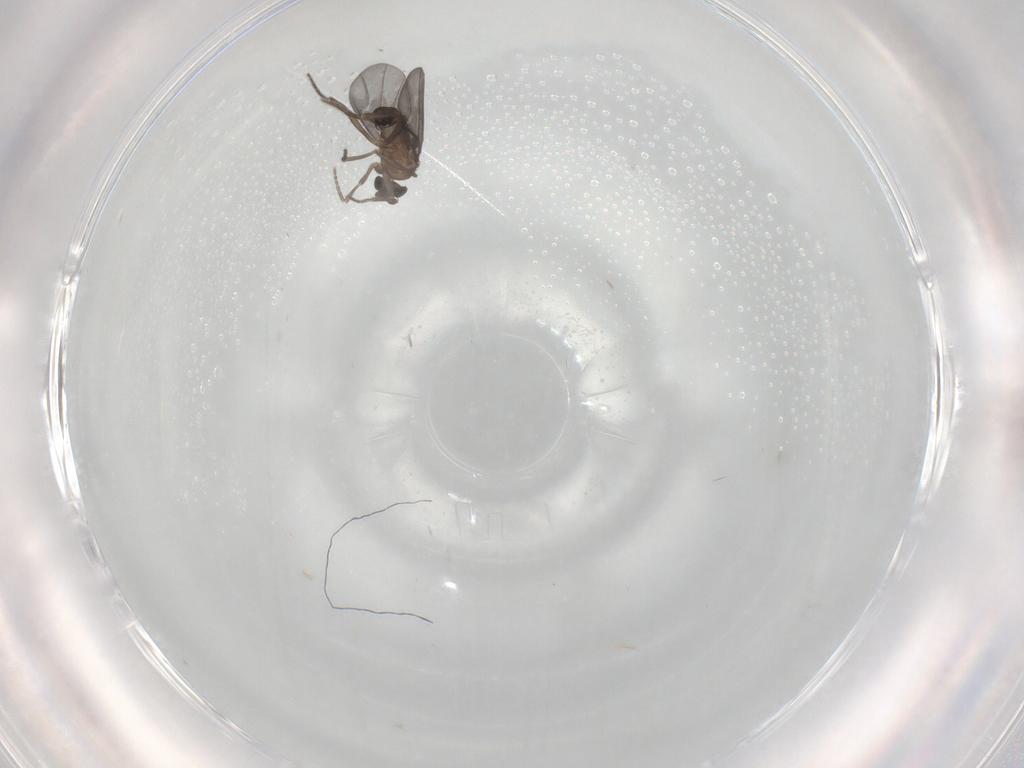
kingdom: Animalia
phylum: Arthropoda
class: Insecta
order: Diptera
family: Phoridae
